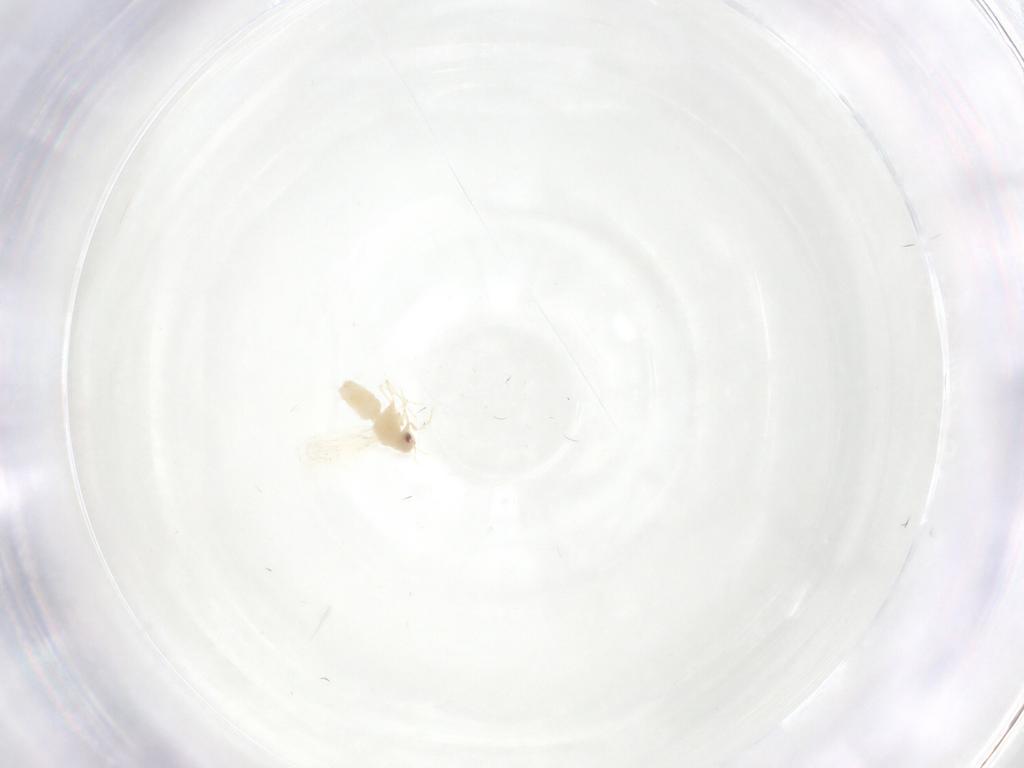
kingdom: Animalia
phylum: Arthropoda
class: Insecta
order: Hemiptera
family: Aleyrodidae
